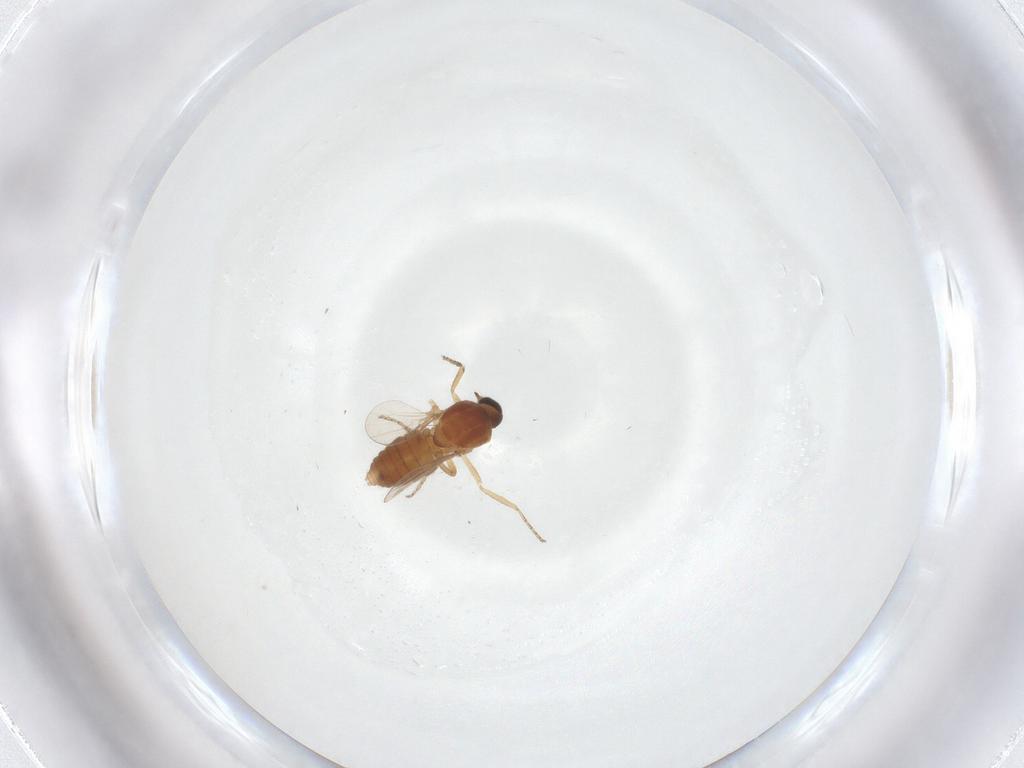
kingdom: Animalia
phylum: Arthropoda
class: Insecta
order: Diptera
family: Ceratopogonidae
